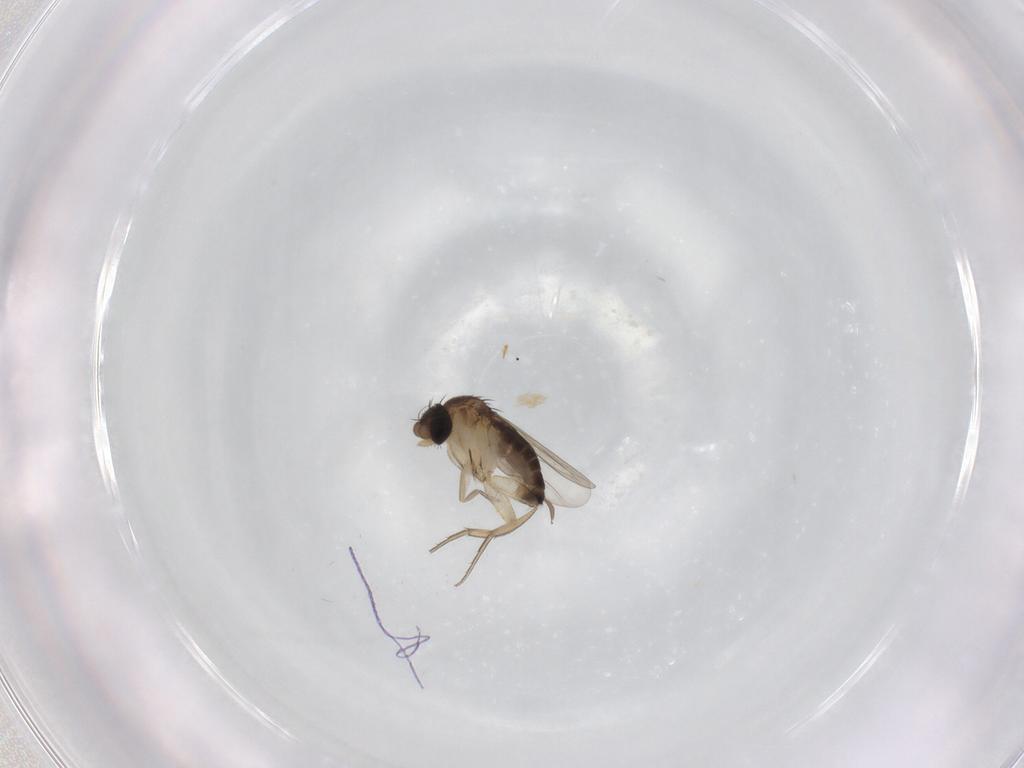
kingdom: Animalia
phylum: Arthropoda
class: Insecta
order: Diptera
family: Sciaridae
